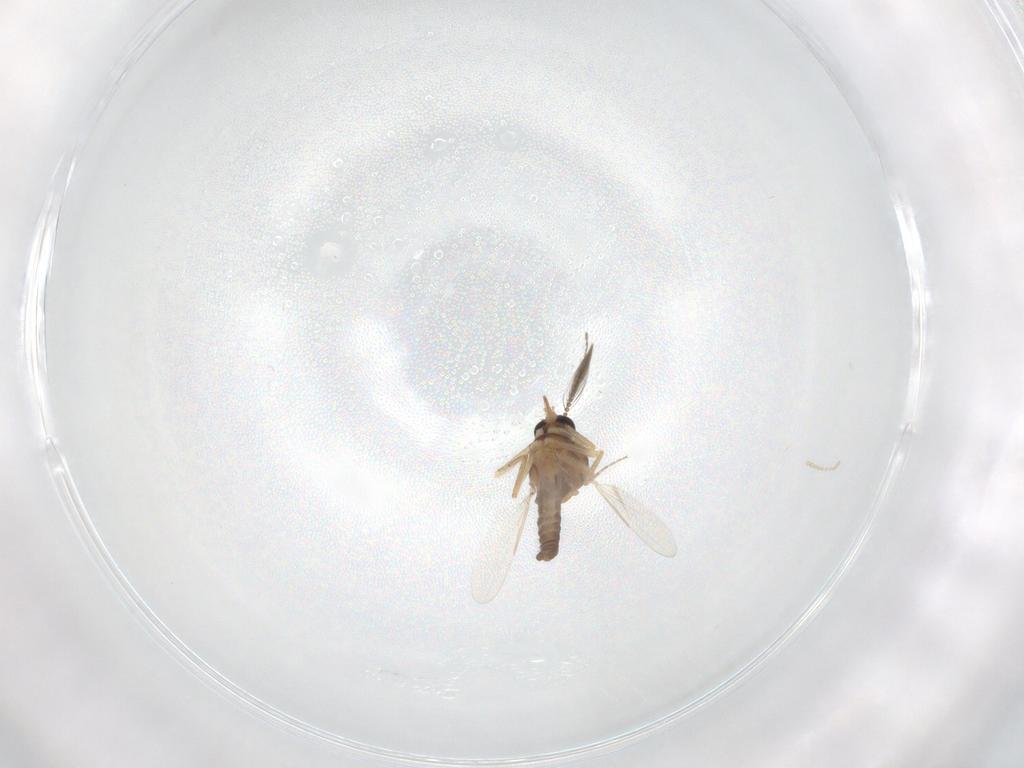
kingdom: Animalia
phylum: Arthropoda
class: Insecta
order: Diptera
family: Ceratopogonidae
